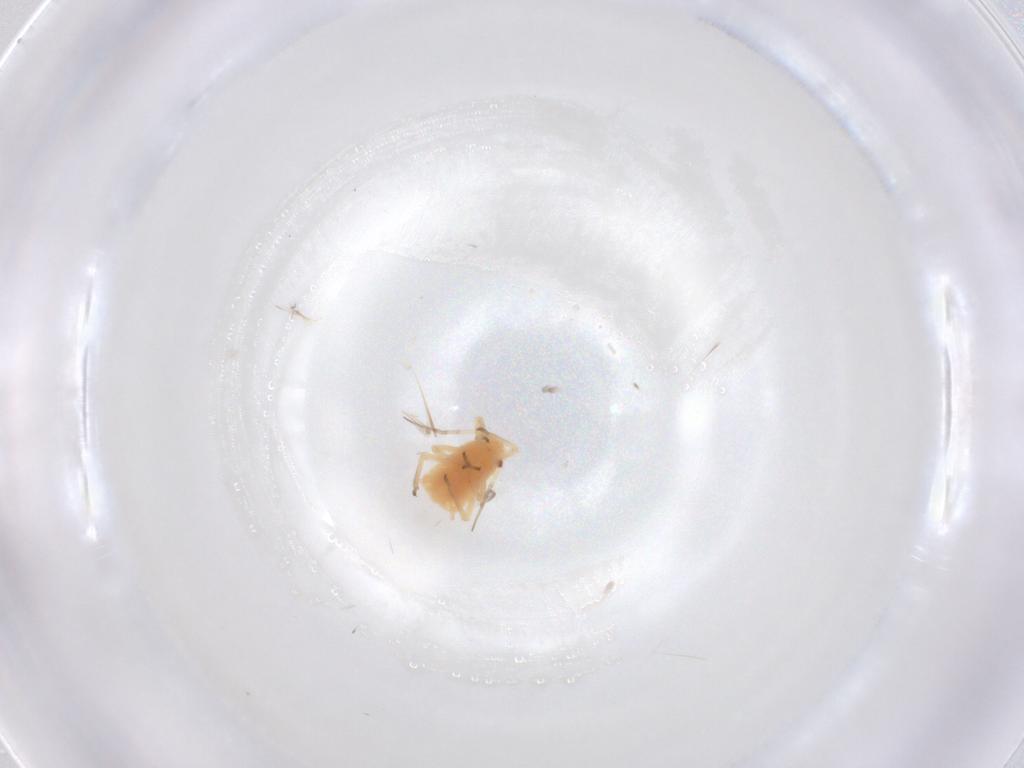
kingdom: Animalia
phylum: Arthropoda
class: Insecta
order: Hemiptera
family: Aphididae
